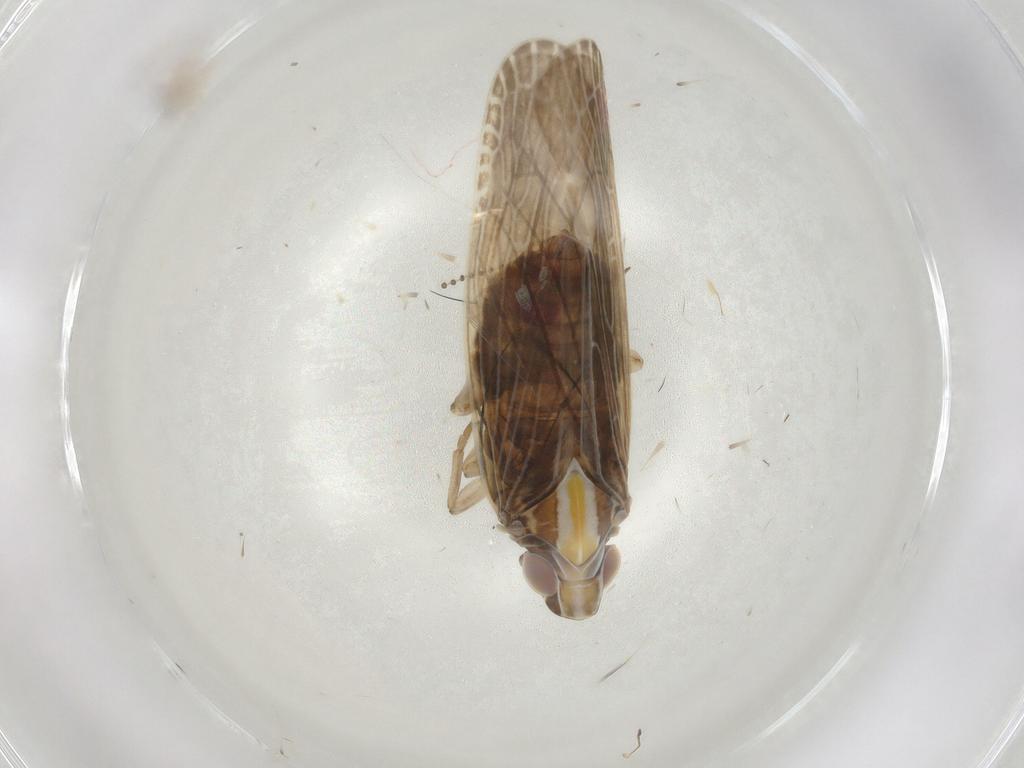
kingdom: Animalia
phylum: Arthropoda
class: Insecta
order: Hemiptera
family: Achilidae
